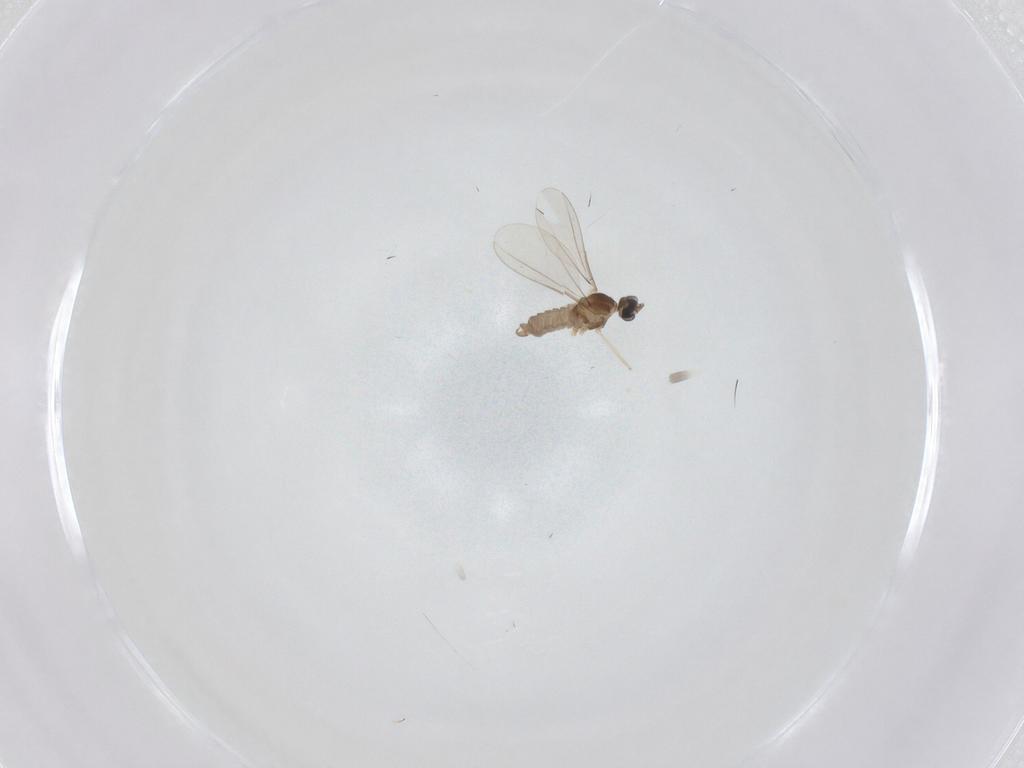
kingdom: Animalia
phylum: Arthropoda
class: Insecta
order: Diptera
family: Cecidomyiidae
